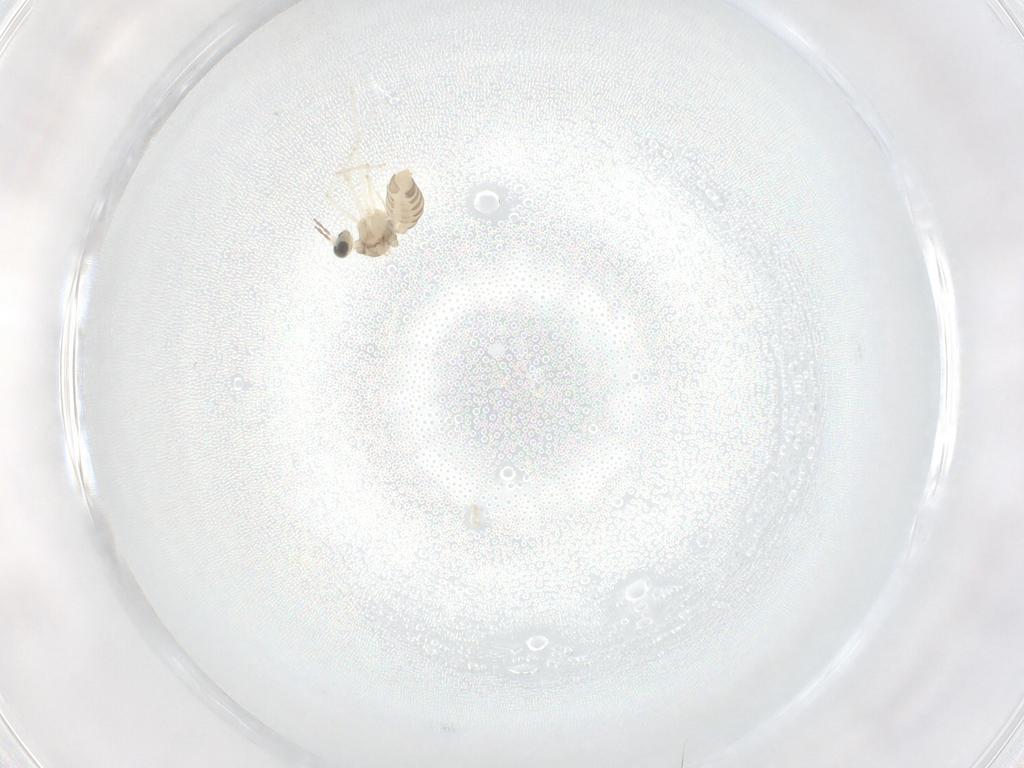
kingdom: Animalia
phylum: Arthropoda
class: Insecta
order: Diptera
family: Cecidomyiidae
